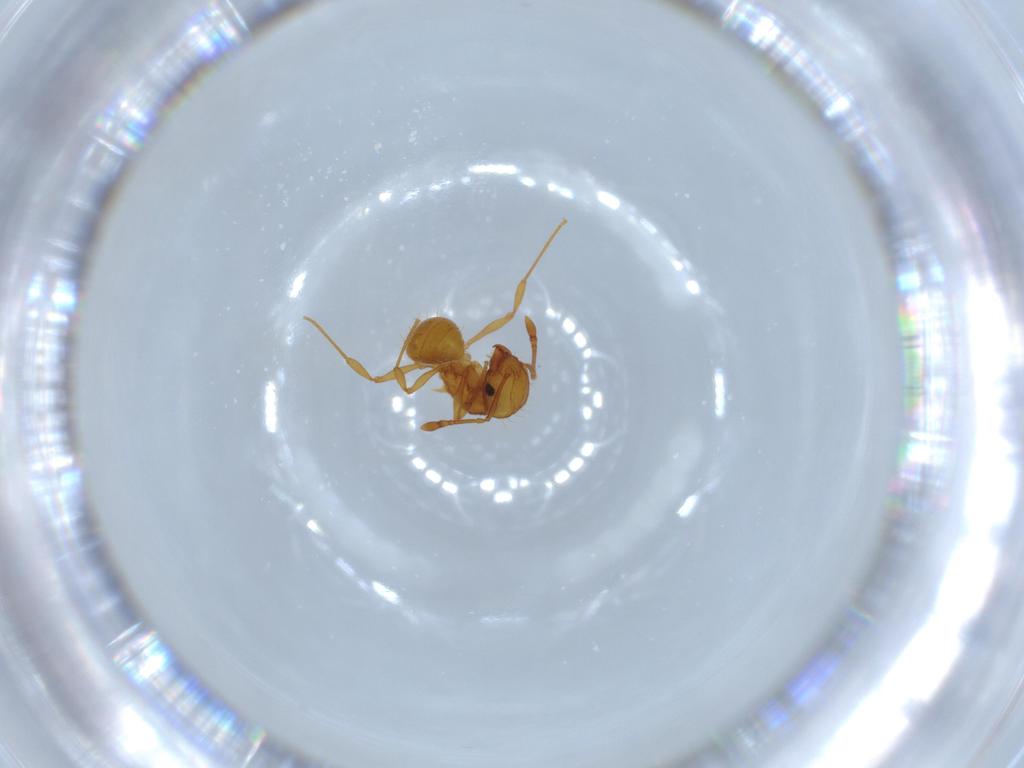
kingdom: Animalia
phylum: Arthropoda
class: Insecta
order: Hymenoptera
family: Formicidae
